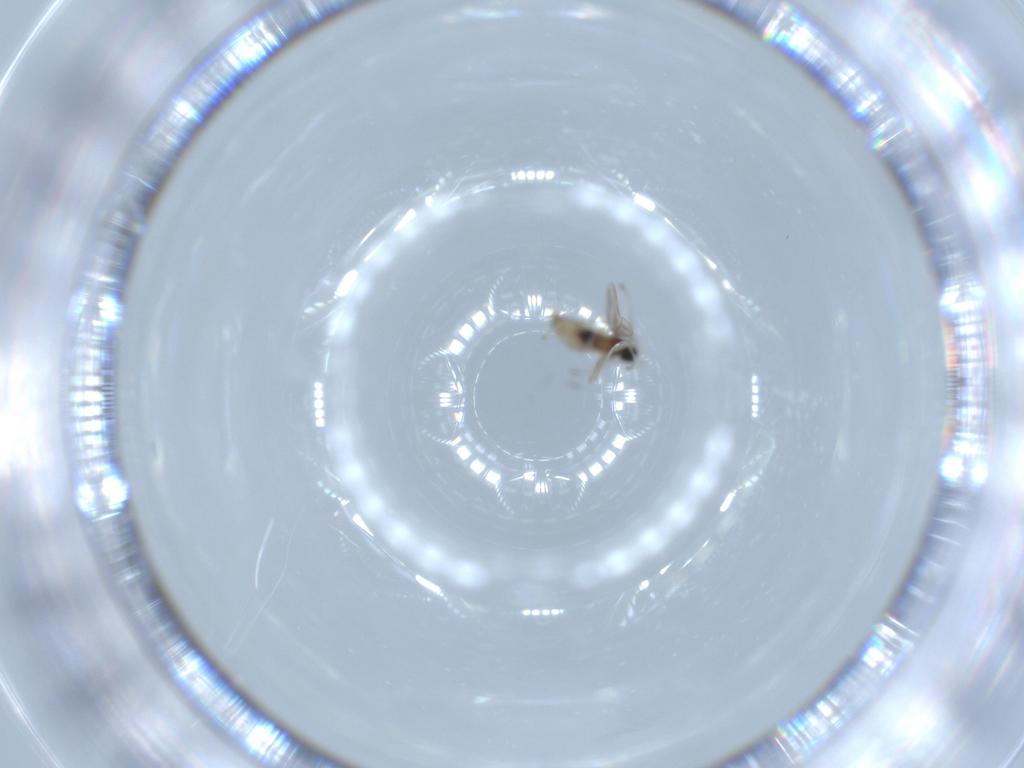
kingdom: Animalia
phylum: Arthropoda
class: Insecta
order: Diptera
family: Cecidomyiidae
